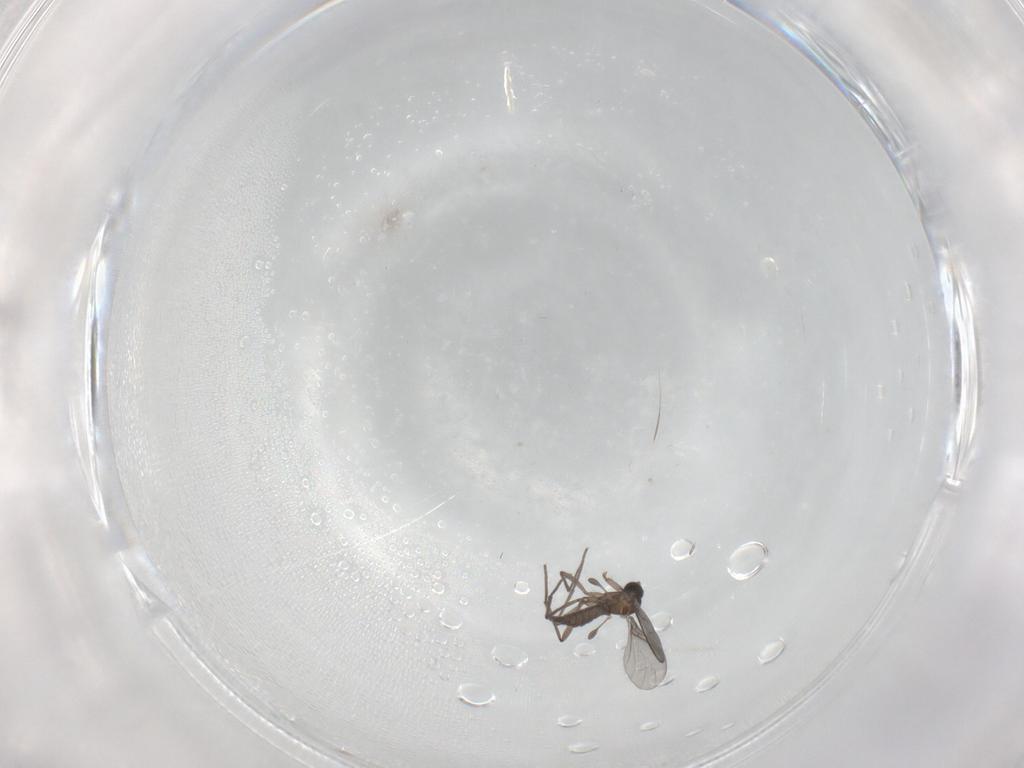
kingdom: Animalia
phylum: Arthropoda
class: Insecta
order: Diptera
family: Sciaridae
